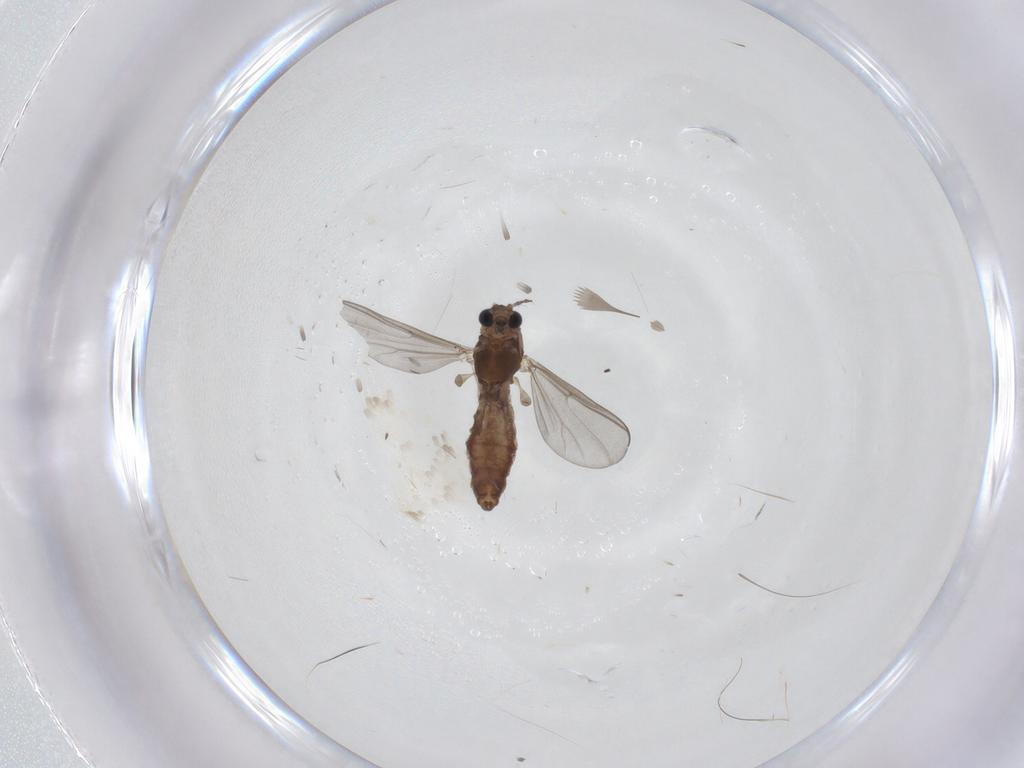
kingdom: Animalia
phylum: Arthropoda
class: Insecta
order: Diptera
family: Chironomidae
